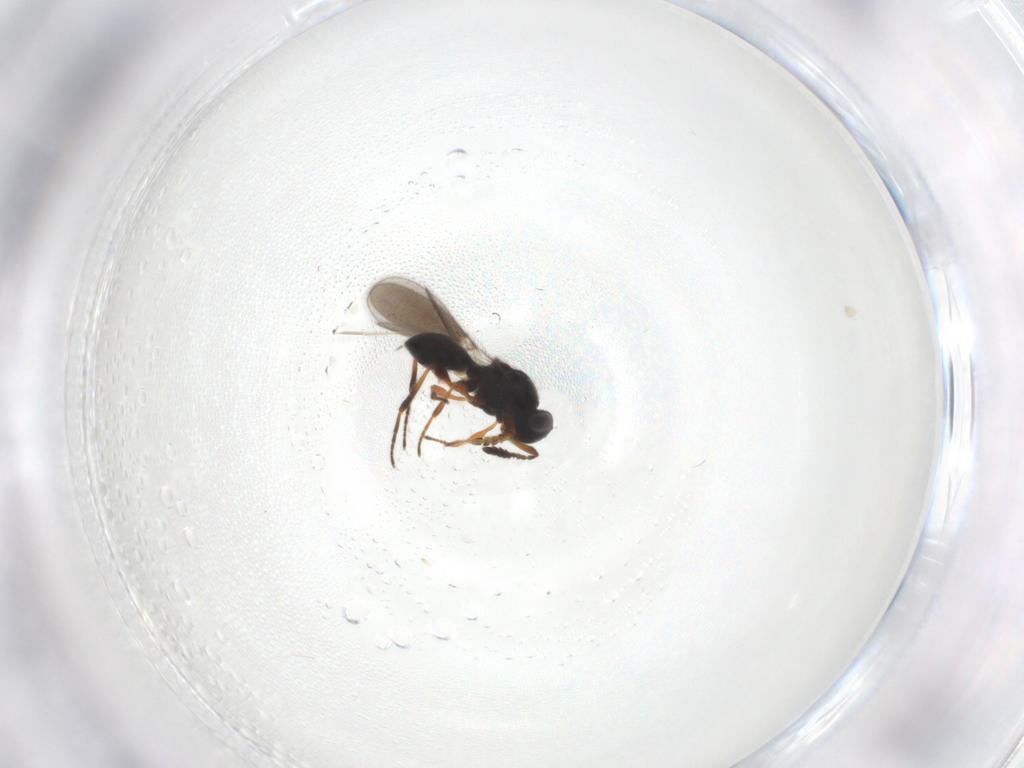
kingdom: Animalia
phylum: Arthropoda
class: Insecta
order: Hymenoptera
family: Platygastridae
